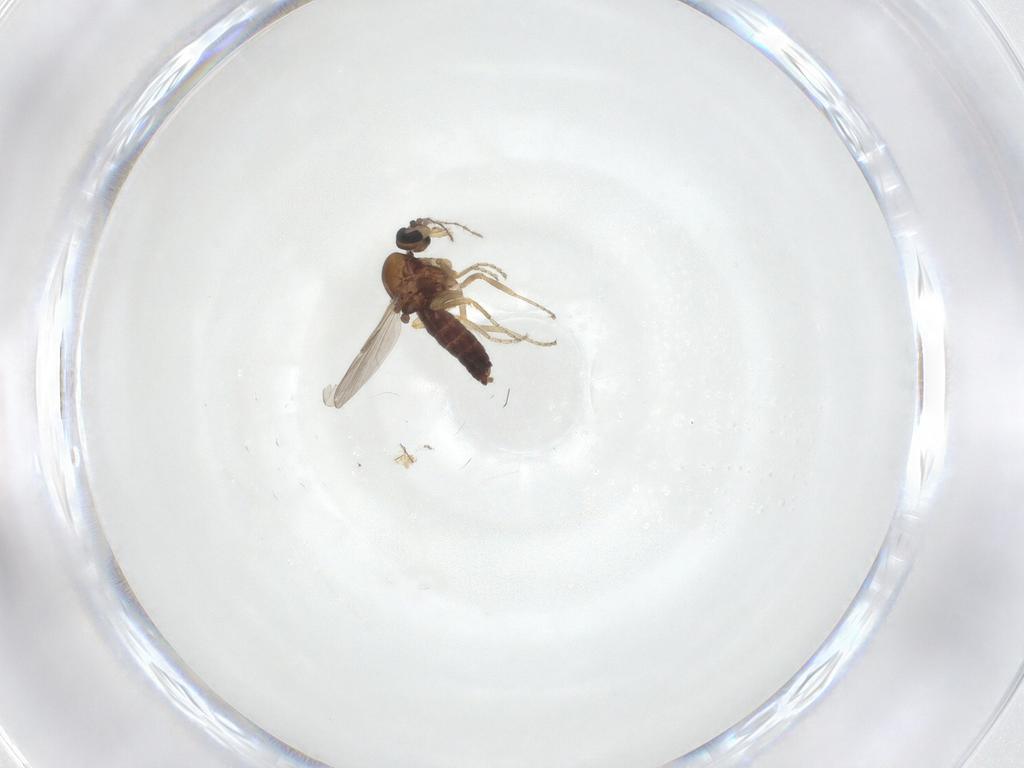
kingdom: Animalia
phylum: Arthropoda
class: Insecta
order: Diptera
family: Ceratopogonidae
